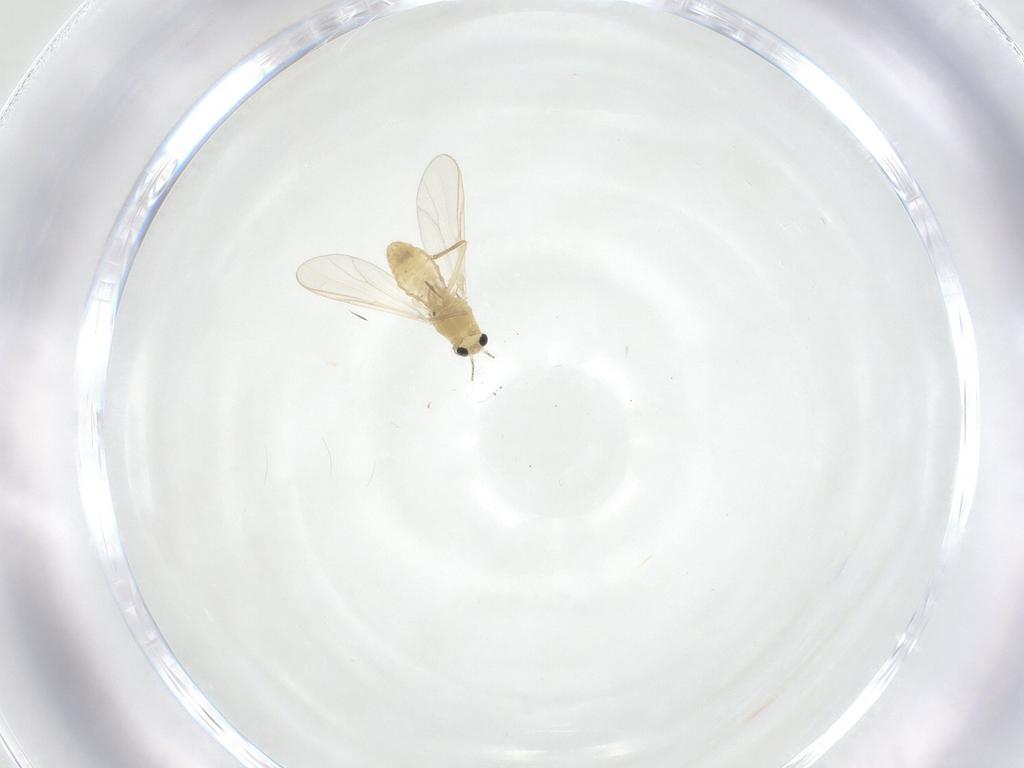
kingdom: Animalia
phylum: Arthropoda
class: Insecta
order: Diptera
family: Chironomidae
